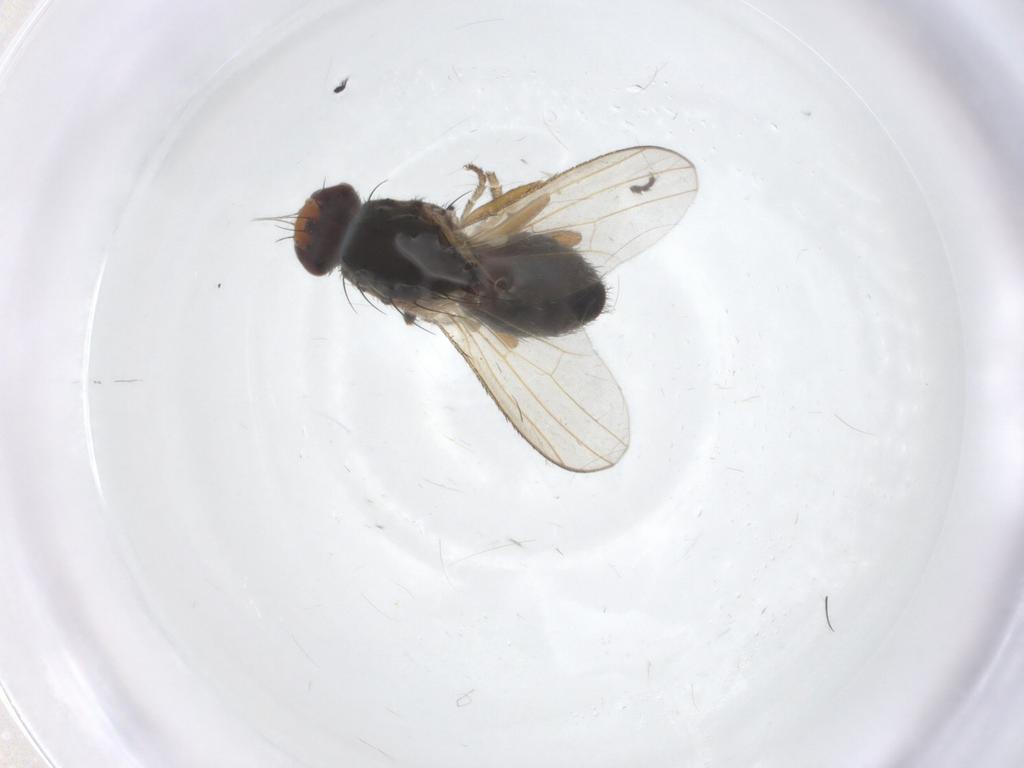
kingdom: Animalia
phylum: Arthropoda
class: Insecta
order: Diptera
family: Heleomyzidae
